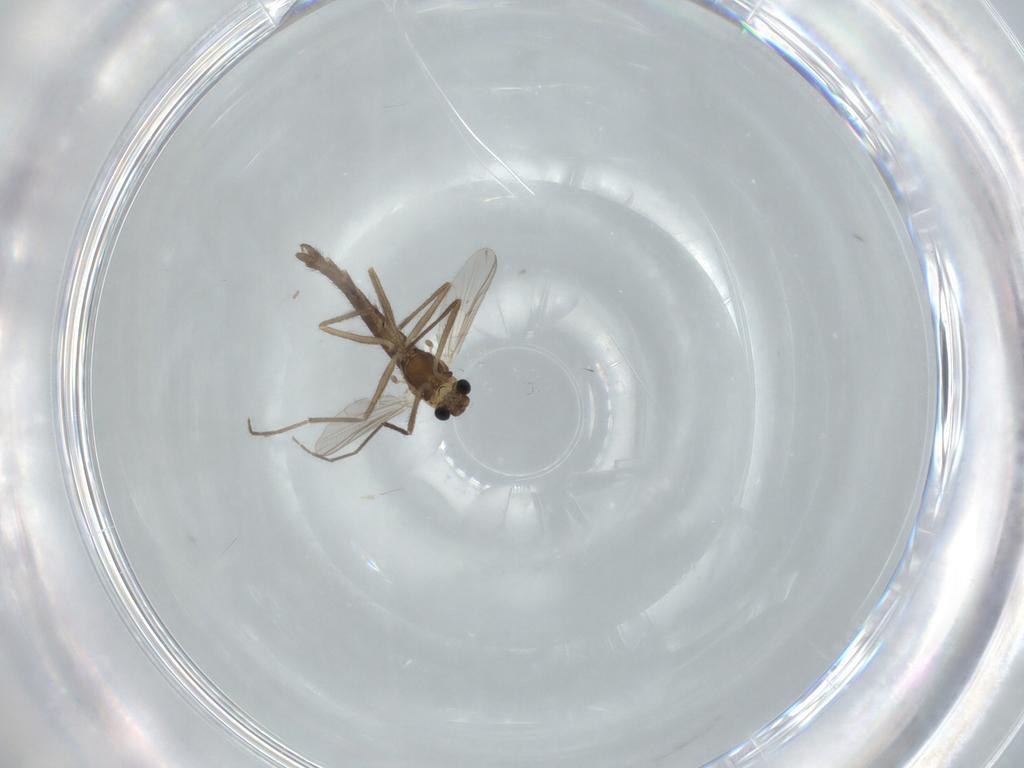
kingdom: Animalia
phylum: Arthropoda
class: Insecta
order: Diptera
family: Chironomidae
